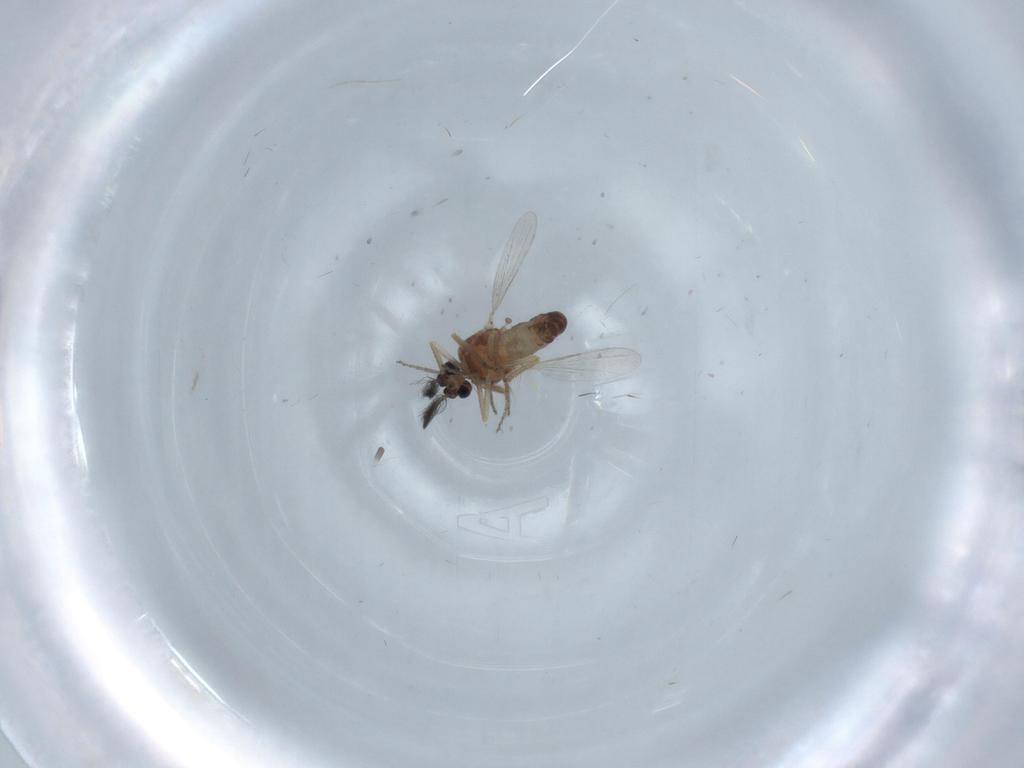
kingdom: Animalia
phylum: Arthropoda
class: Insecta
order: Diptera
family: Ceratopogonidae
